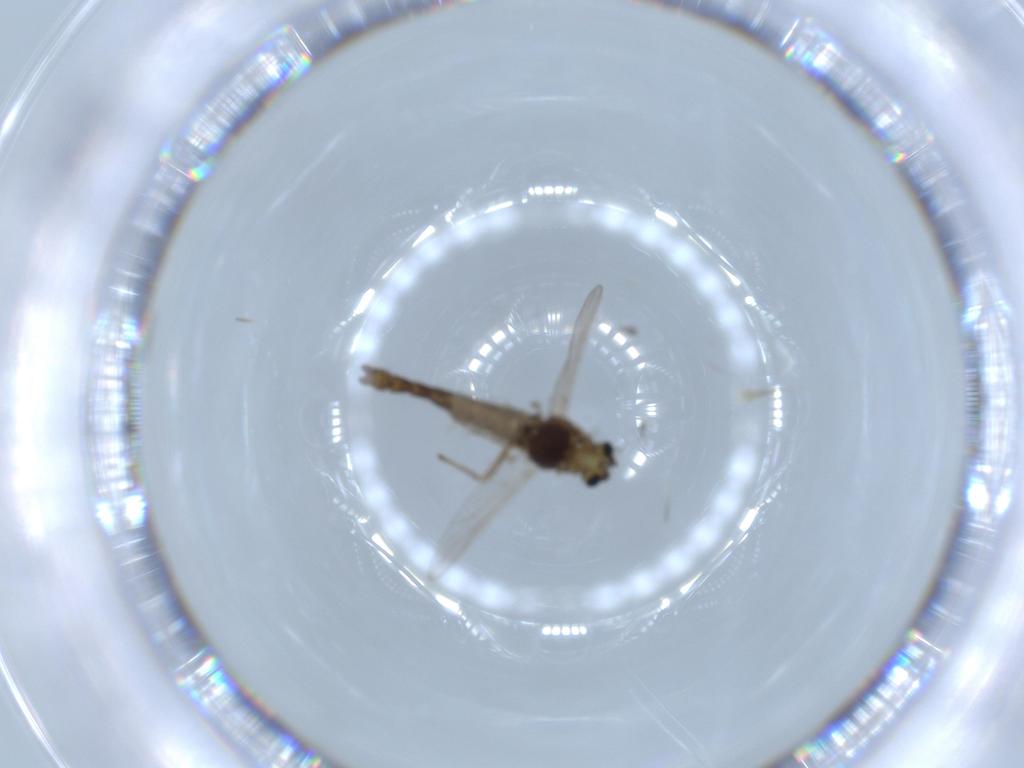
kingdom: Animalia
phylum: Arthropoda
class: Insecta
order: Diptera
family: Chironomidae
